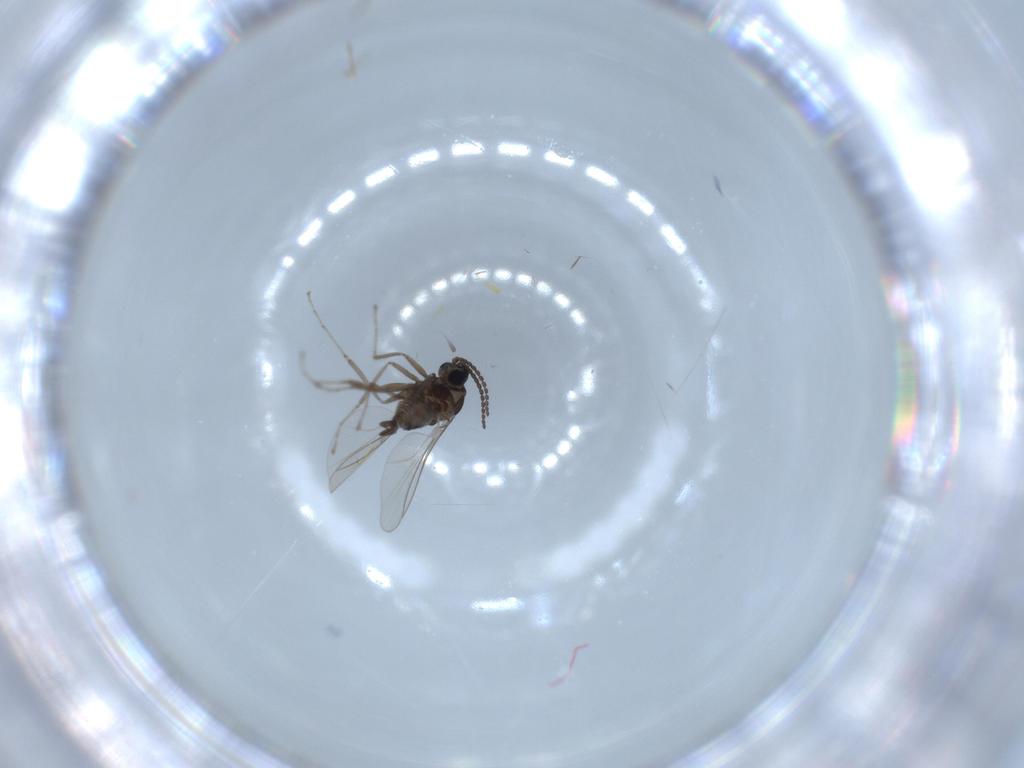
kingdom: Animalia
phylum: Arthropoda
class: Insecta
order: Diptera
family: Cecidomyiidae
